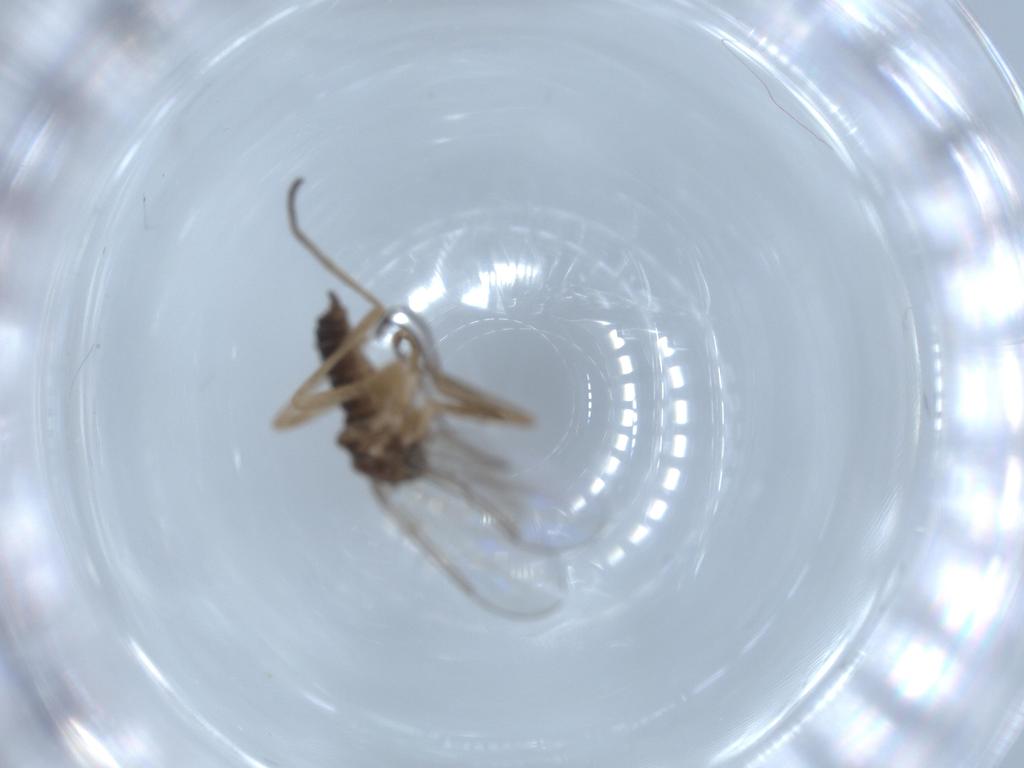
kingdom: Animalia
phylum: Arthropoda
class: Insecta
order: Diptera
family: Cecidomyiidae
